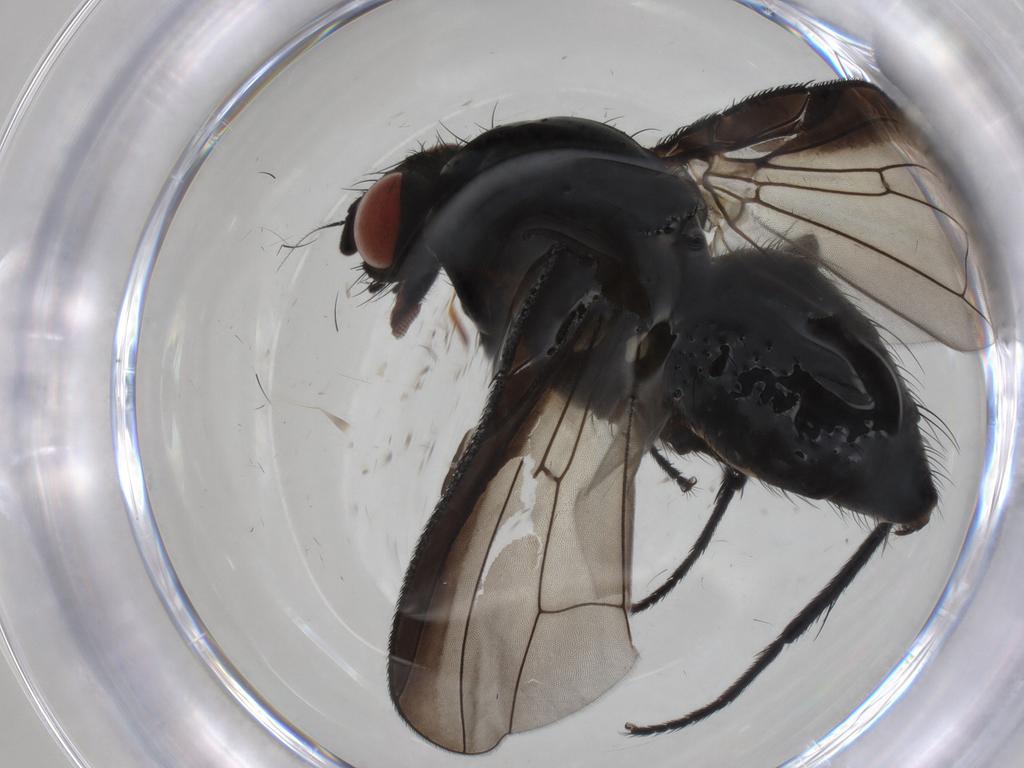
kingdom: Animalia
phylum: Arthropoda
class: Insecta
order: Diptera
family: Anthomyiidae
